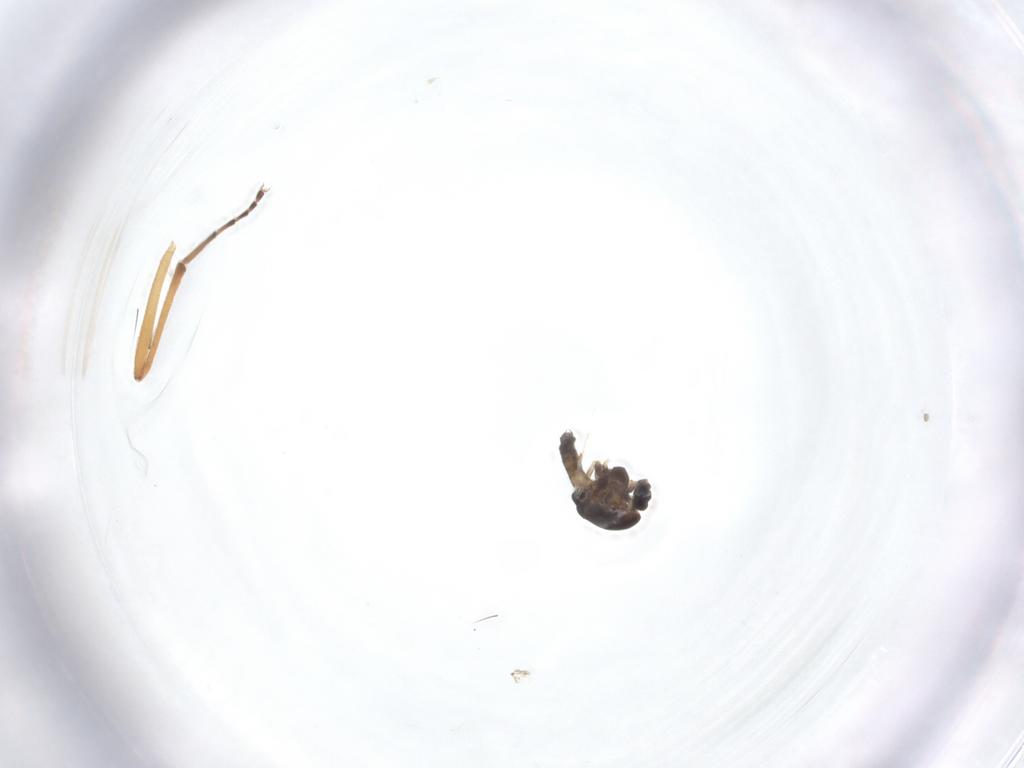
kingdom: Animalia
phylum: Arthropoda
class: Insecta
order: Diptera
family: Chironomidae
